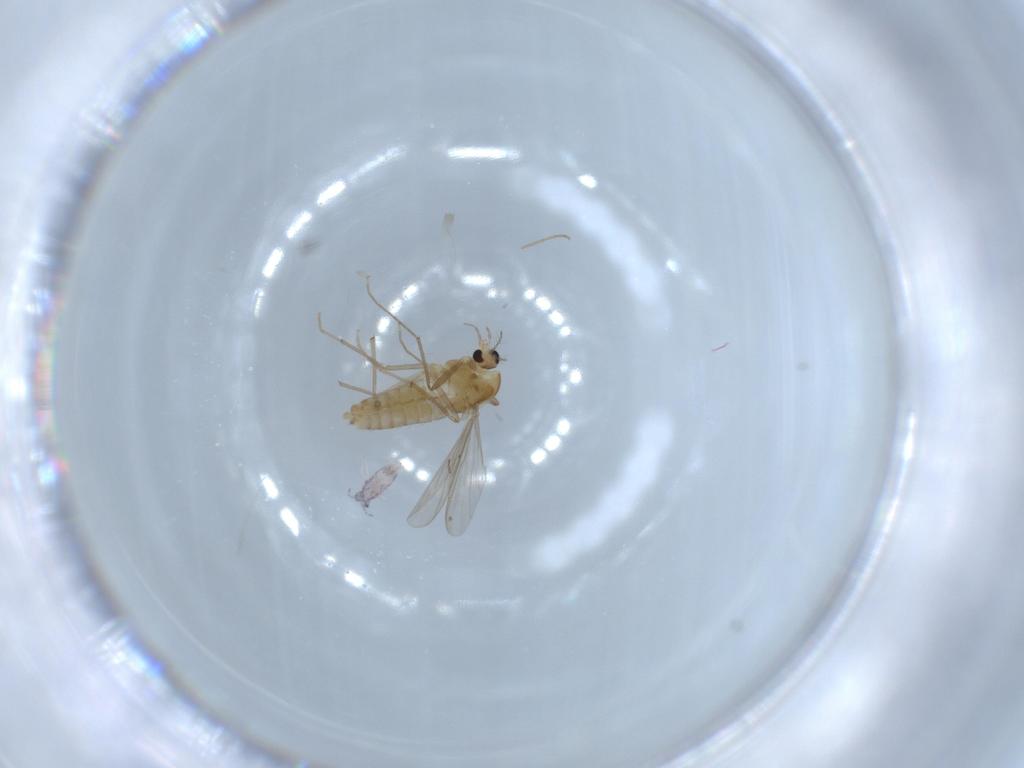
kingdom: Animalia
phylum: Arthropoda
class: Insecta
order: Diptera
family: Chironomidae
